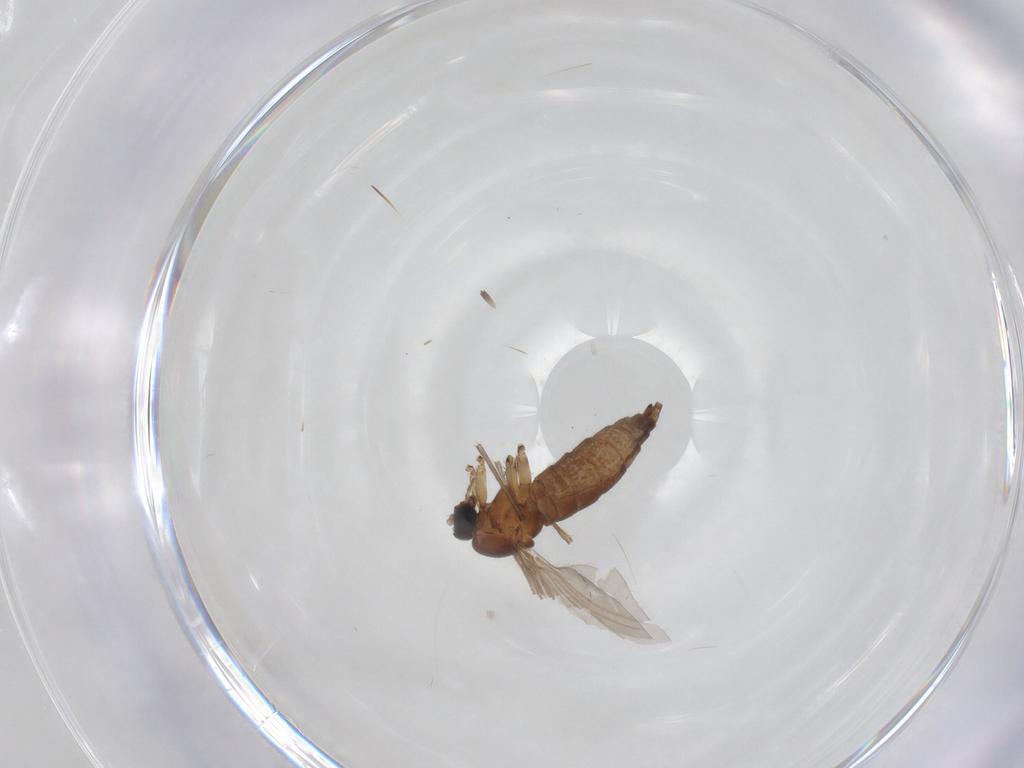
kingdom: Animalia
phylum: Arthropoda
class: Insecta
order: Diptera
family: Sciaridae
